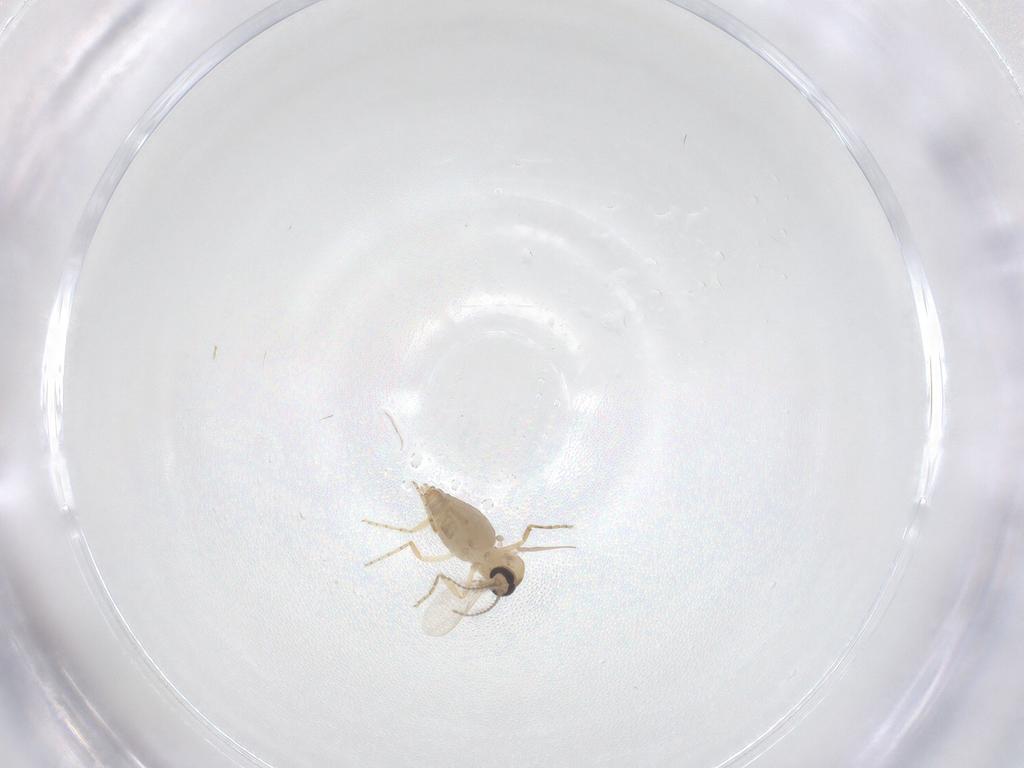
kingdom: Animalia
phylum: Arthropoda
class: Insecta
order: Diptera
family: Ceratopogonidae
